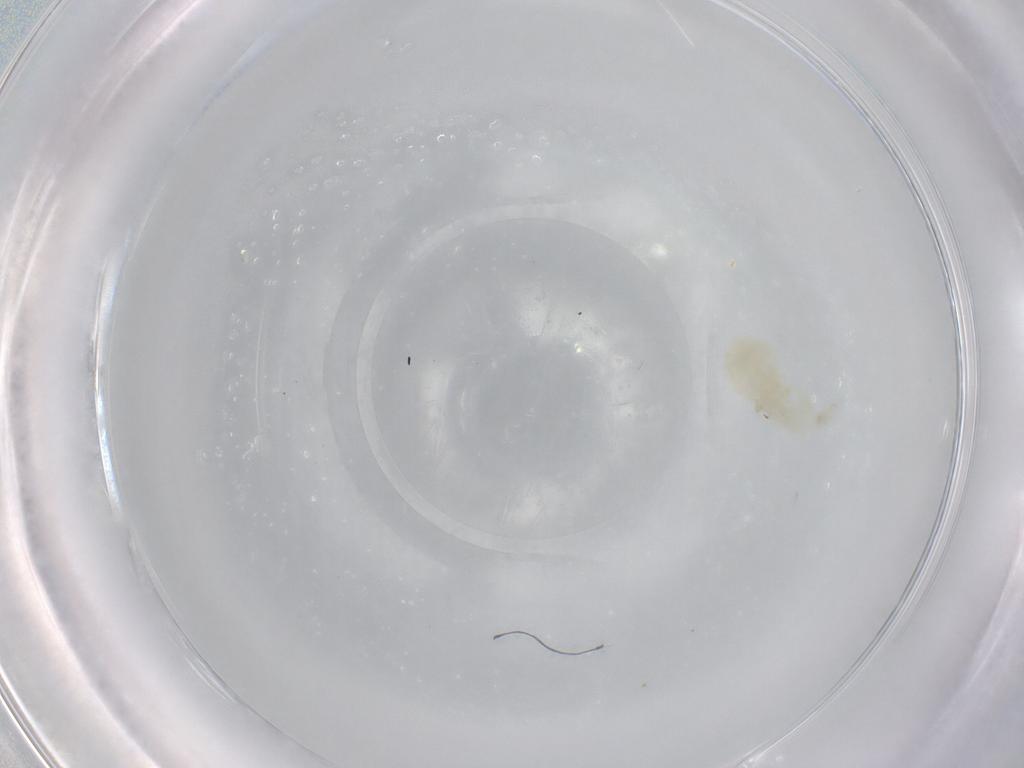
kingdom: Animalia
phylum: Arthropoda
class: Copepoda
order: Calanoida
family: Diaptomidae
